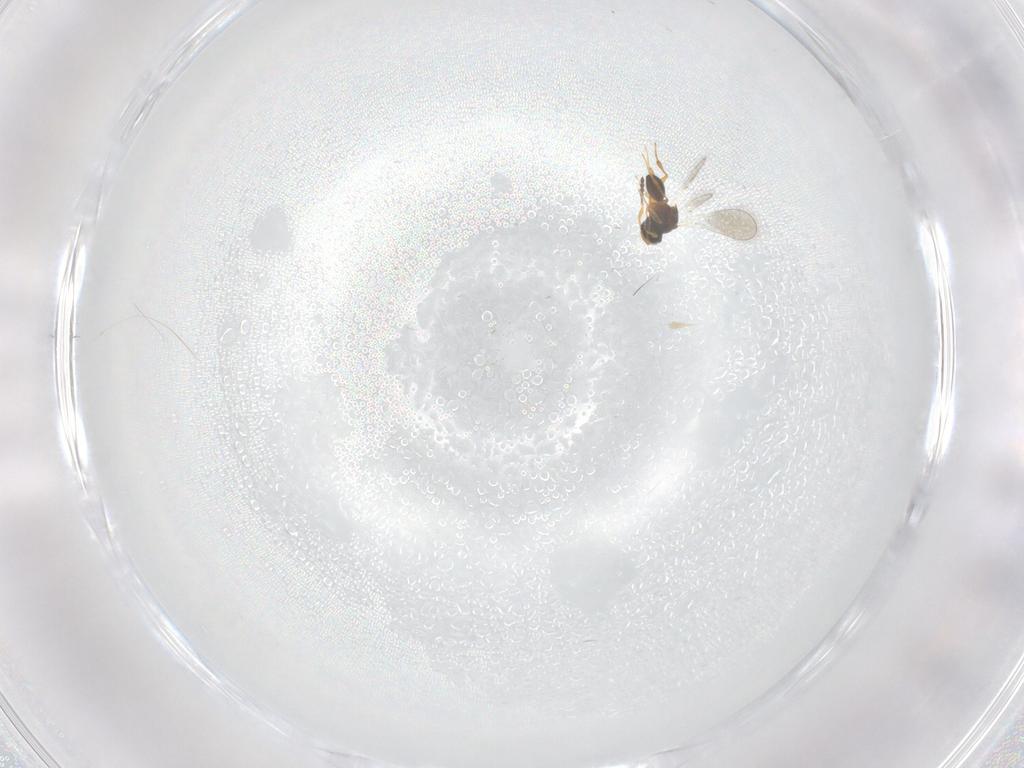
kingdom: Animalia
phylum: Arthropoda
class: Insecta
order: Hymenoptera
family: Platygastridae
